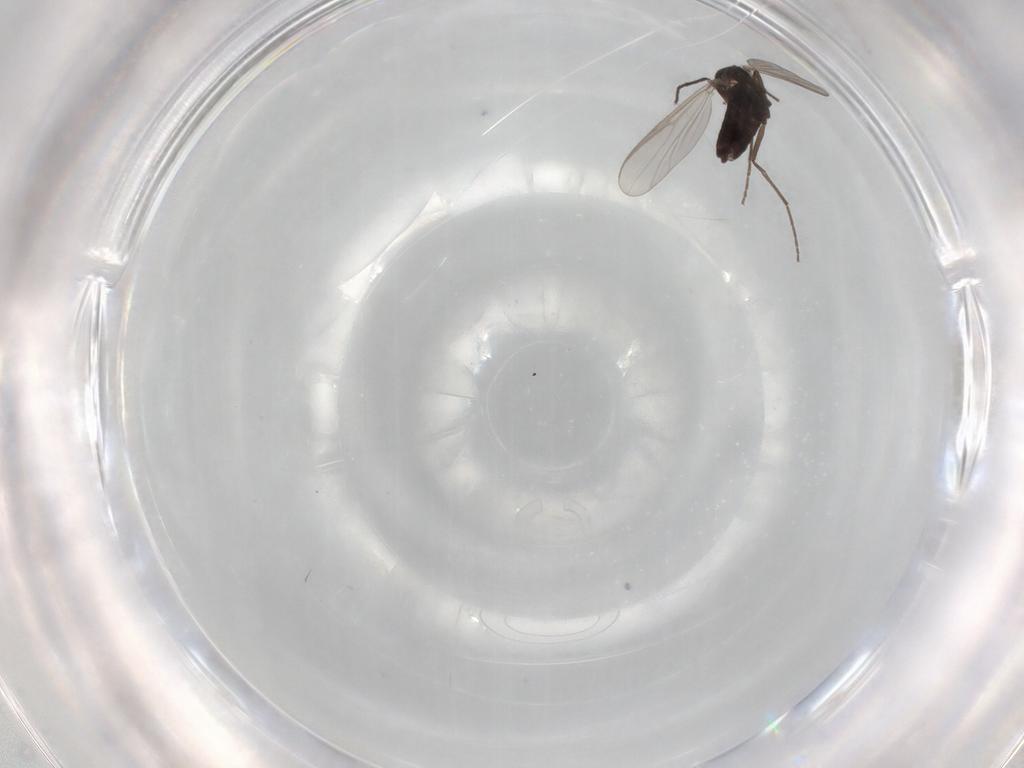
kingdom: Animalia
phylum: Arthropoda
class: Insecta
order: Diptera
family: Chironomidae
